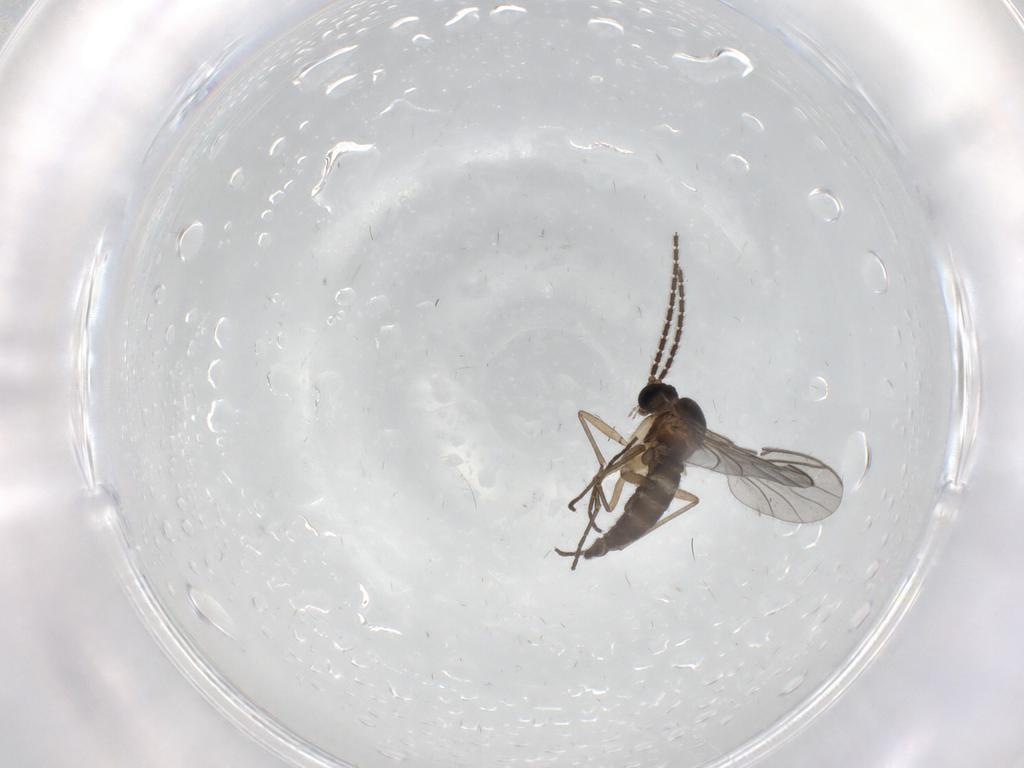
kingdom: Animalia
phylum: Arthropoda
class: Insecta
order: Diptera
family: Sciaridae
